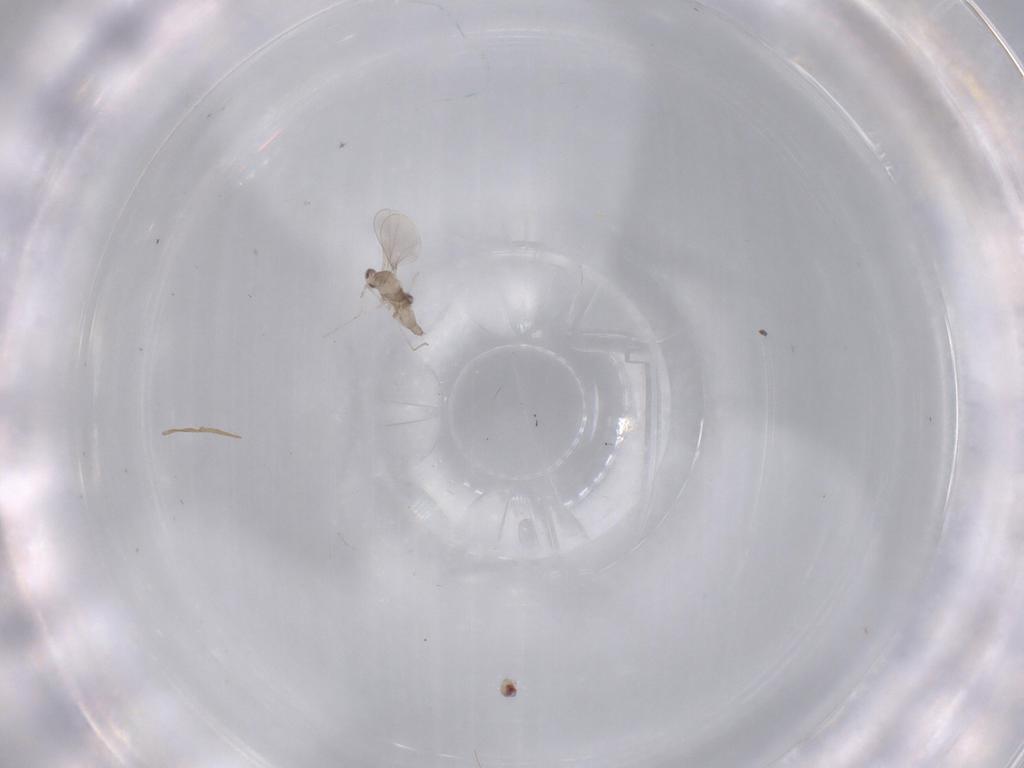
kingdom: Animalia
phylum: Arthropoda
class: Insecta
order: Diptera
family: Cecidomyiidae
